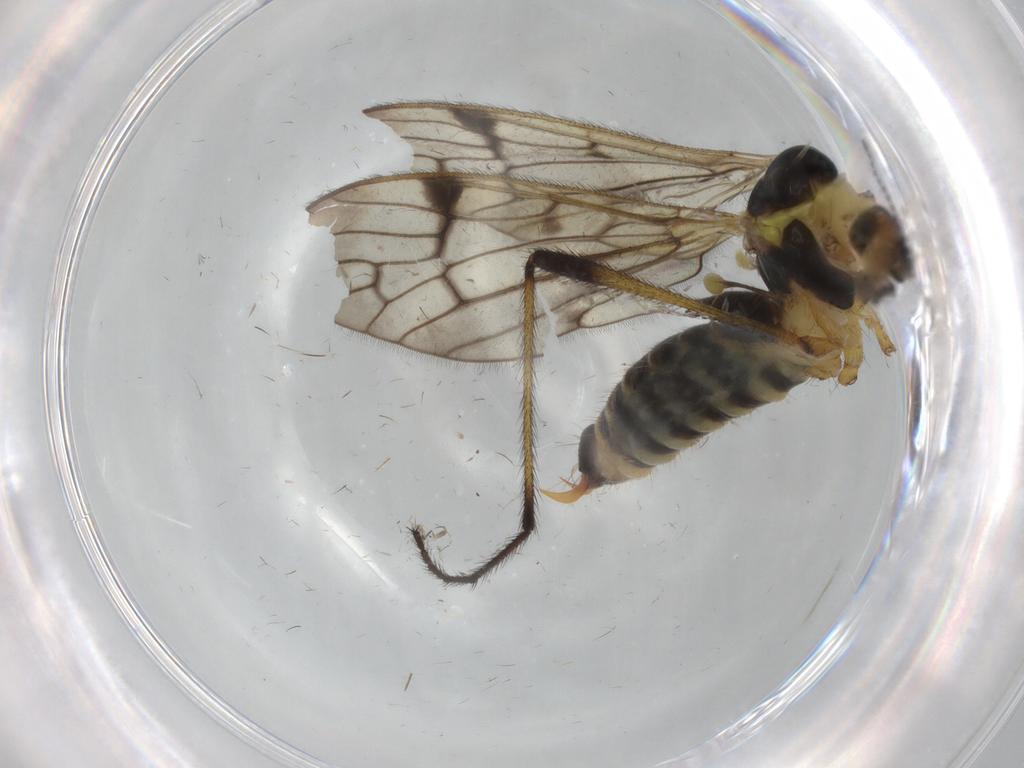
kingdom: Animalia
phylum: Arthropoda
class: Insecta
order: Diptera
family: Limoniidae
